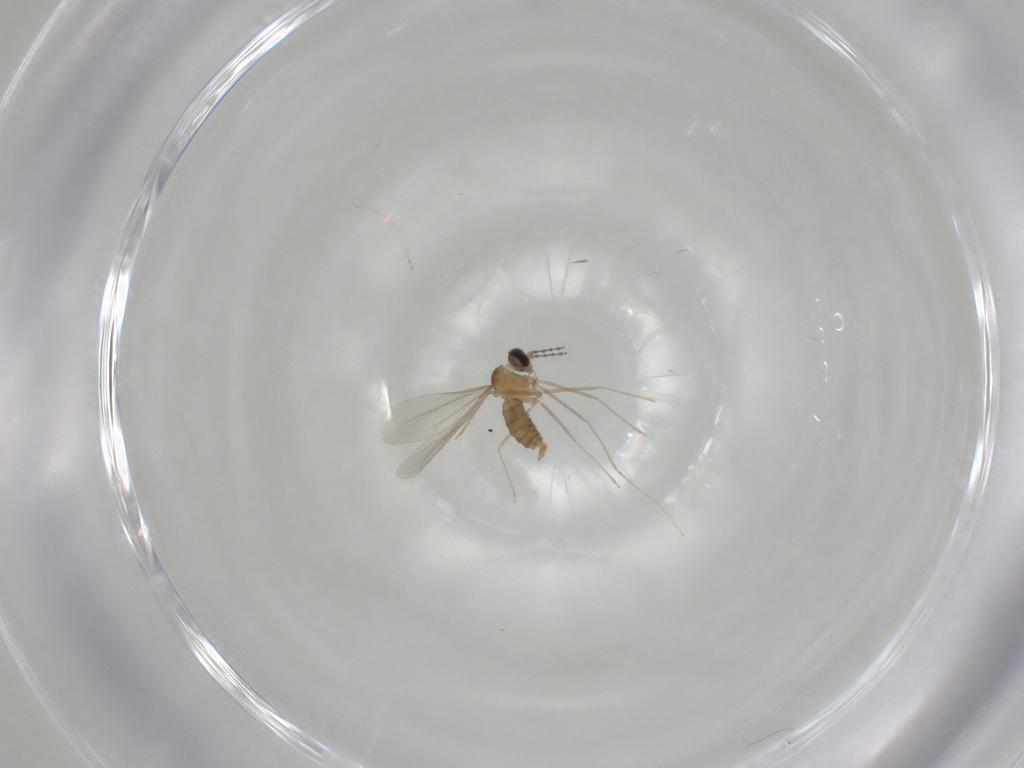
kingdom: Animalia
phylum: Arthropoda
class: Insecta
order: Diptera
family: Cecidomyiidae
